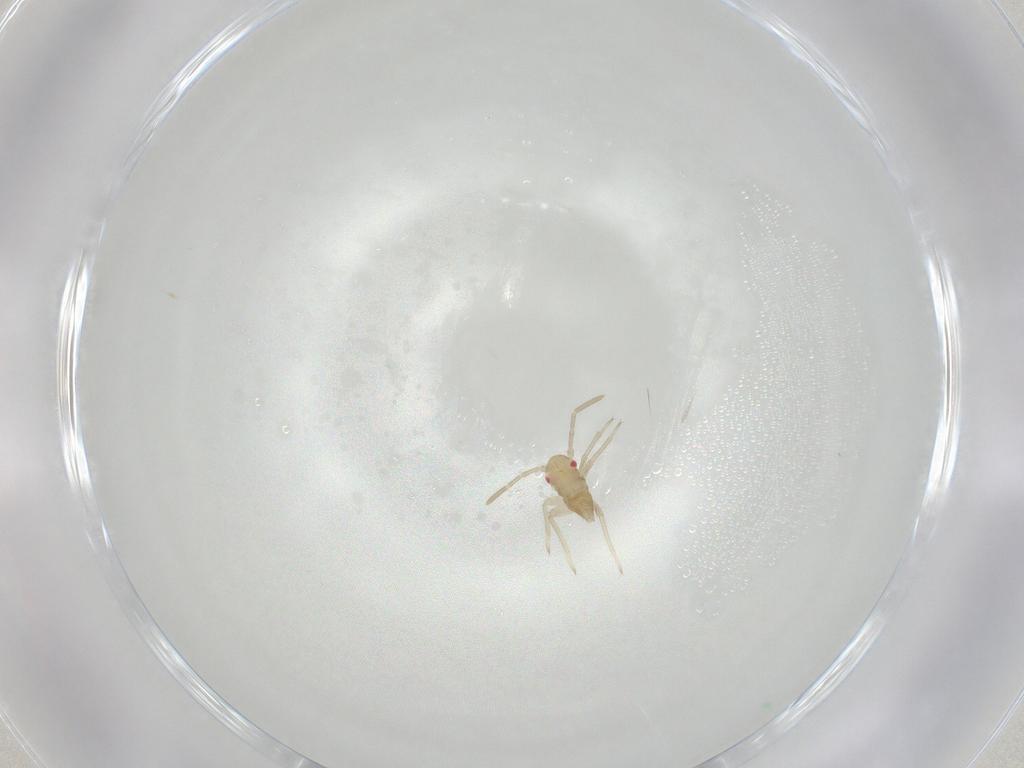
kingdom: Animalia
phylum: Arthropoda
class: Insecta
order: Hemiptera
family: Miridae
